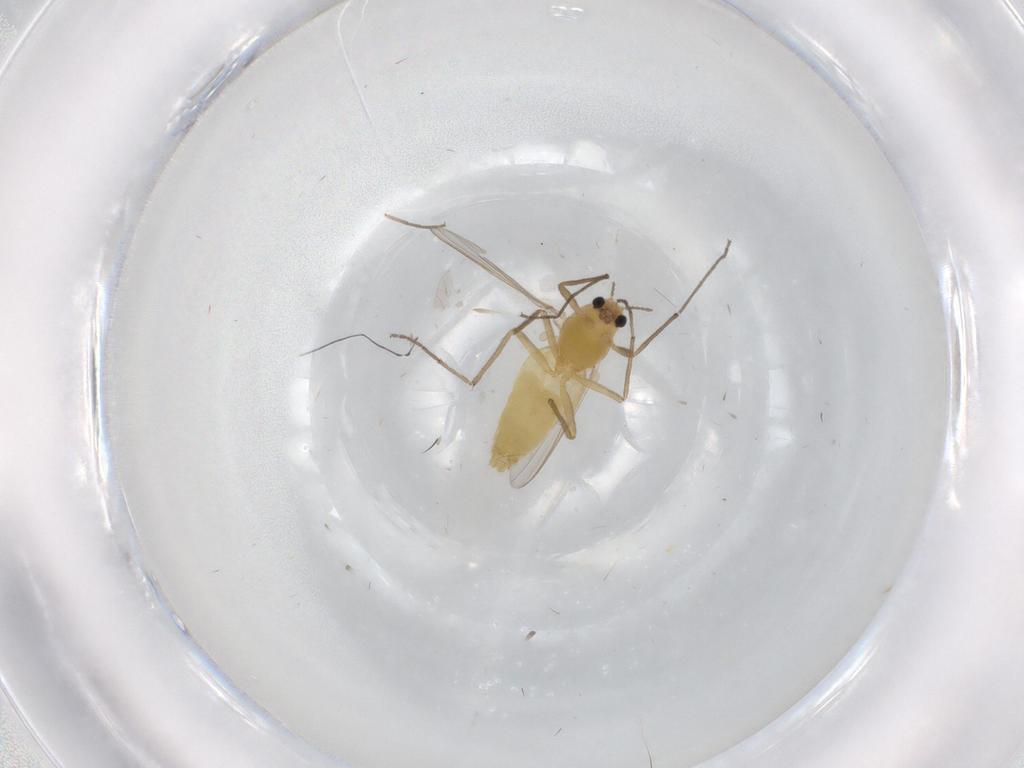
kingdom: Animalia
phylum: Arthropoda
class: Insecta
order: Diptera
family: Chironomidae
